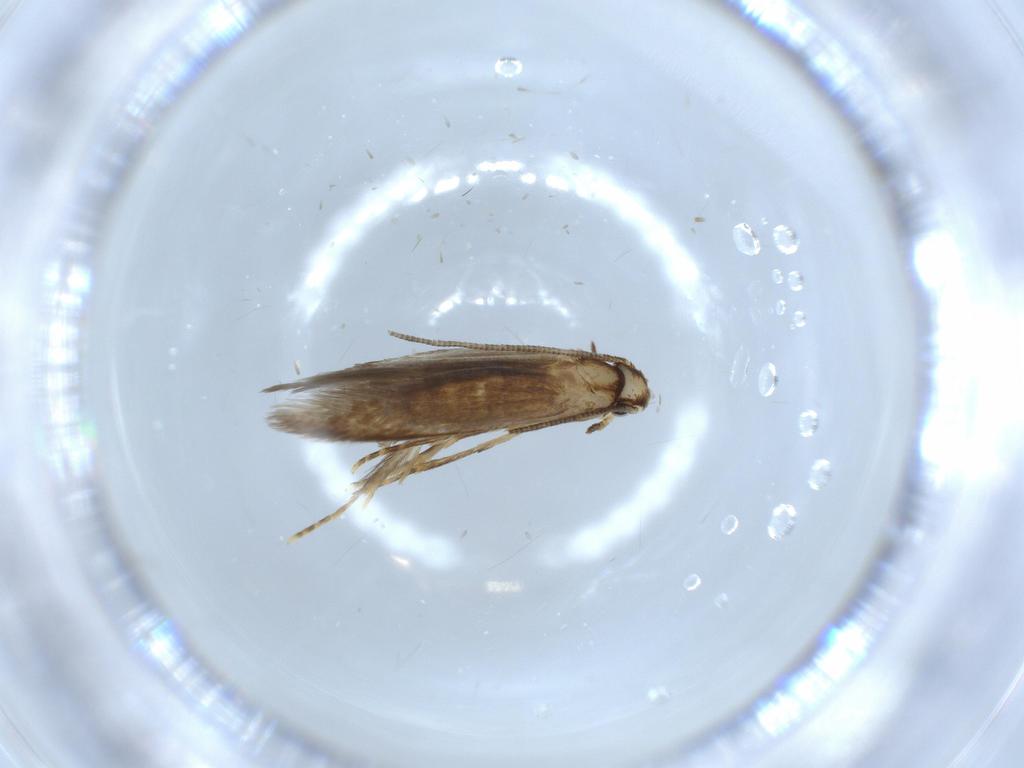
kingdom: Animalia
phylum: Arthropoda
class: Insecta
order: Lepidoptera
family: Tineidae
